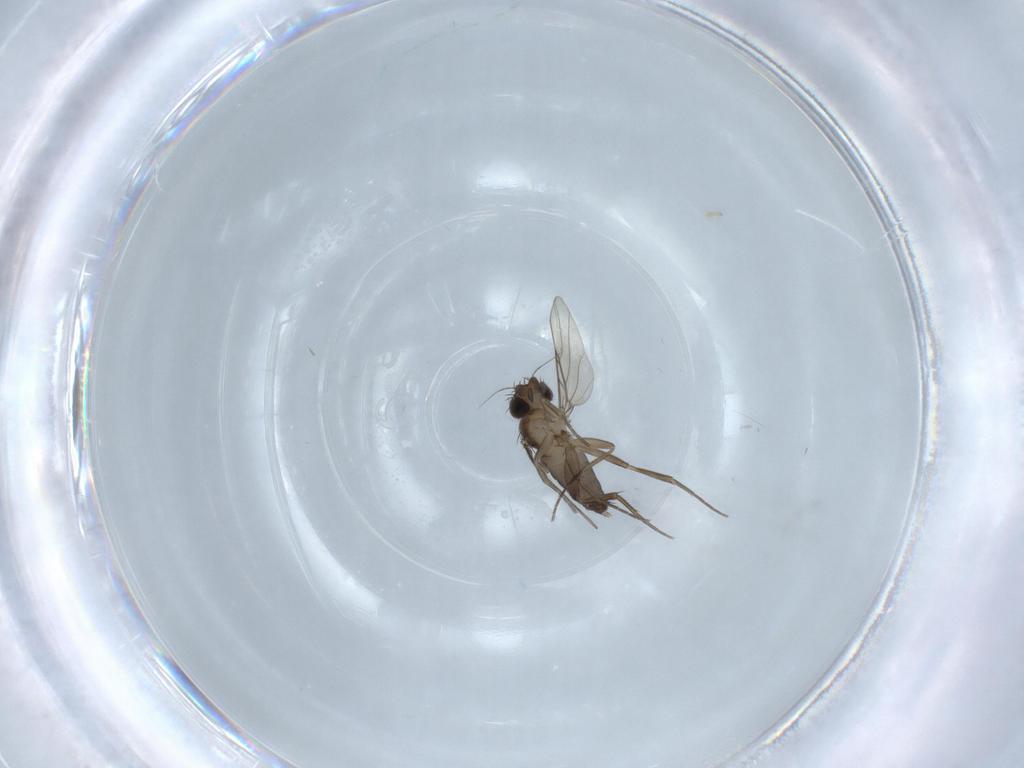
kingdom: Animalia
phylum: Arthropoda
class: Insecta
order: Diptera
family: Phoridae
